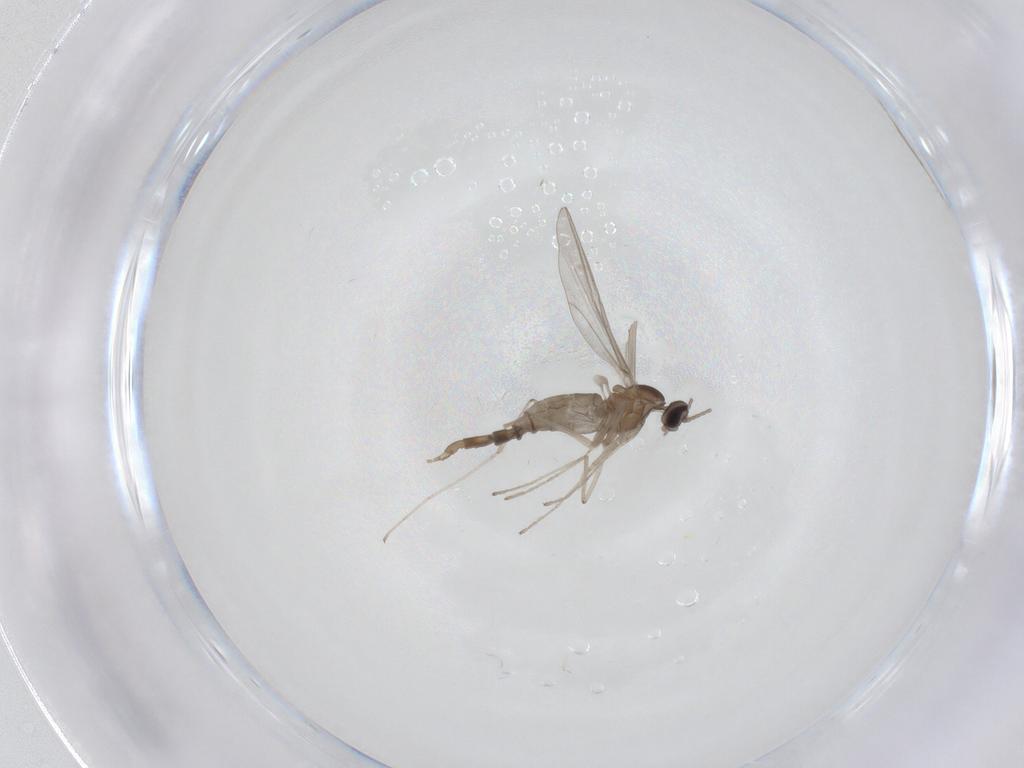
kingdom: Animalia
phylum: Arthropoda
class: Insecta
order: Diptera
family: Cecidomyiidae
